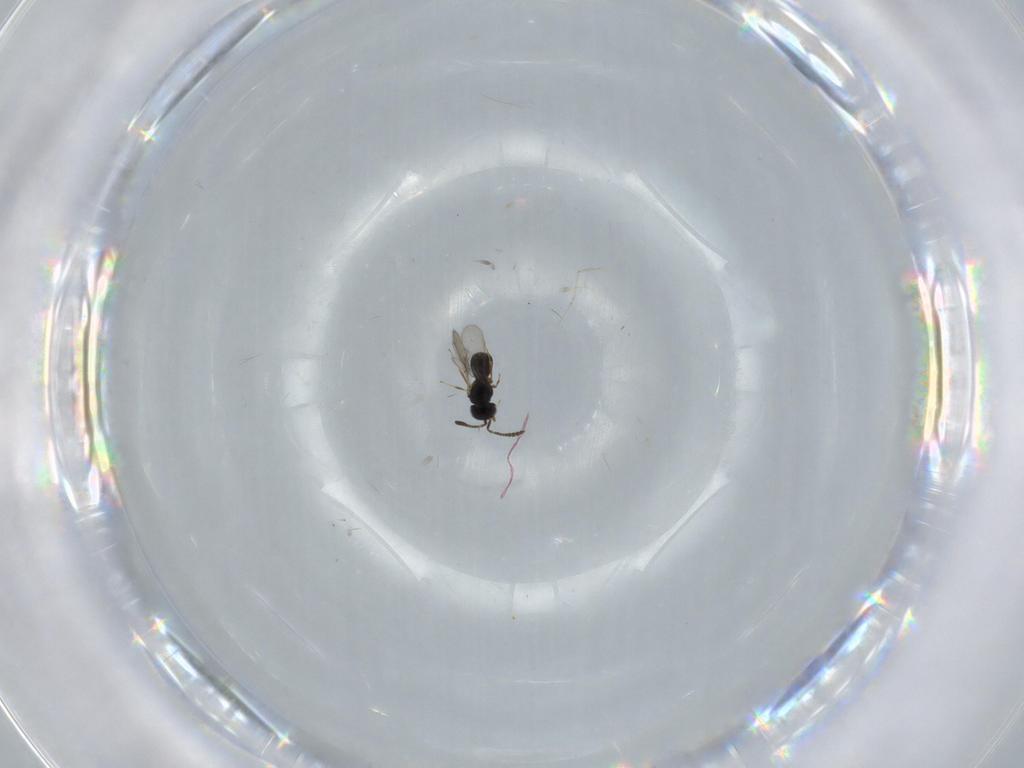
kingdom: Animalia
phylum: Arthropoda
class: Insecta
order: Hymenoptera
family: Scelionidae
